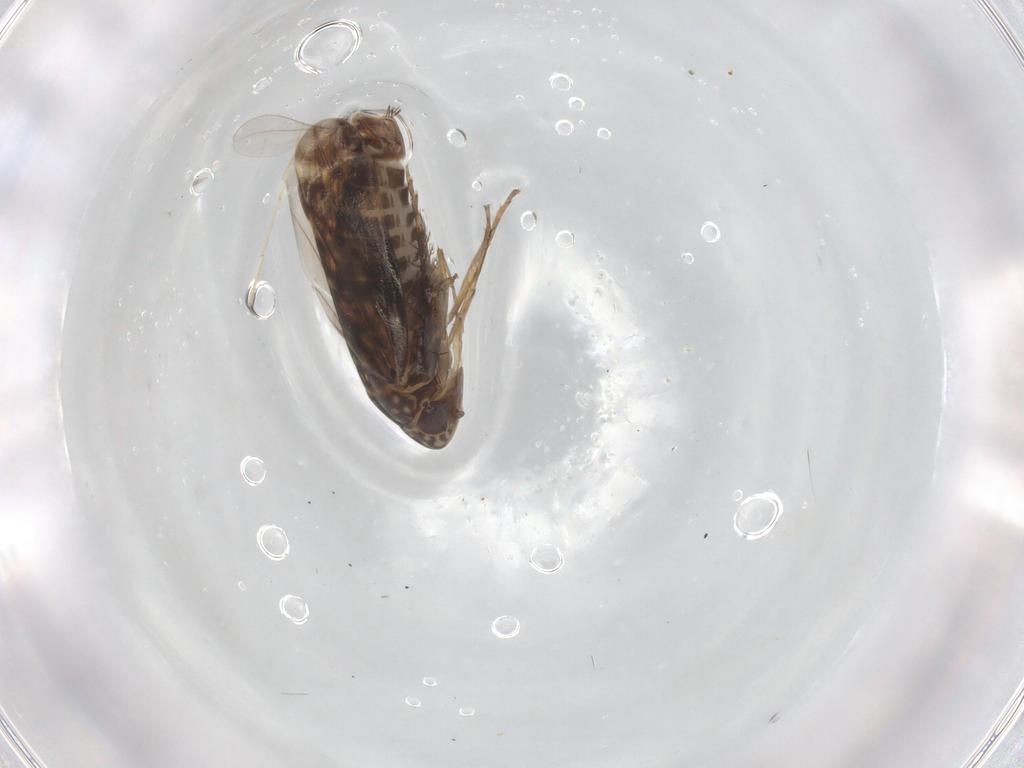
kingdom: Animalia
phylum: Arthropoda
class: Insecta
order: Hemiptera
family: Cicadellidae
